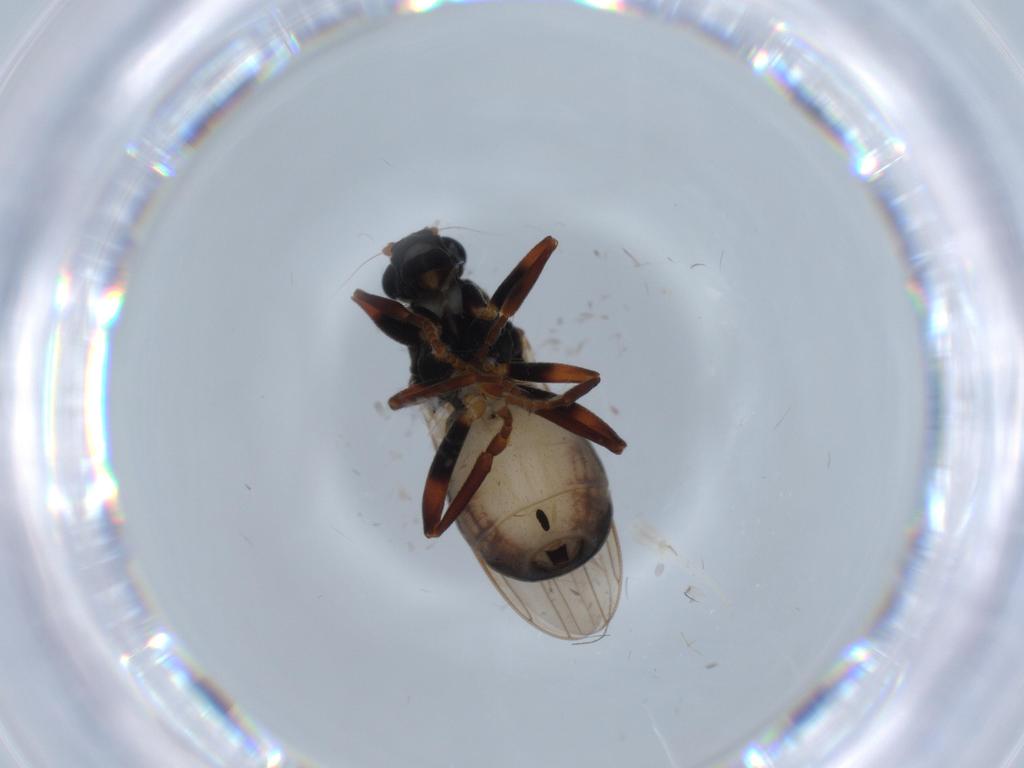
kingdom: Animalia
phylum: Arthropoda
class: Insecta
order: Diptera
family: Sphaeroceridae
